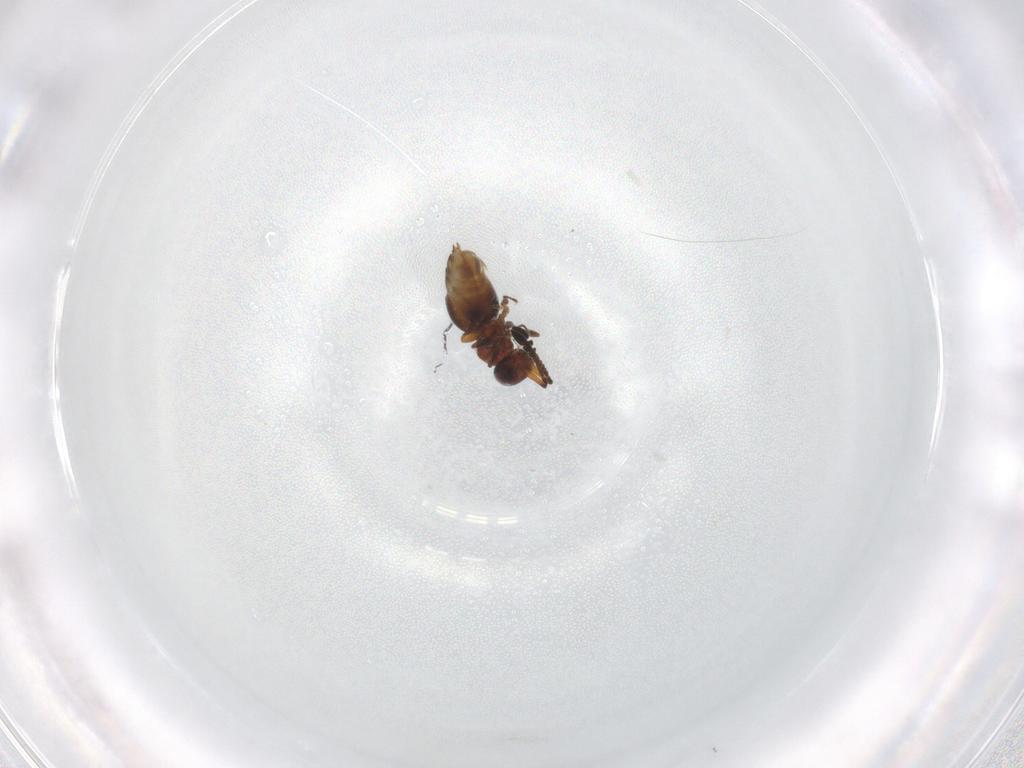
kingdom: Animalia
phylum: Arthropoda
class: Insecta
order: Hymenoptera
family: Ceraphronidae
